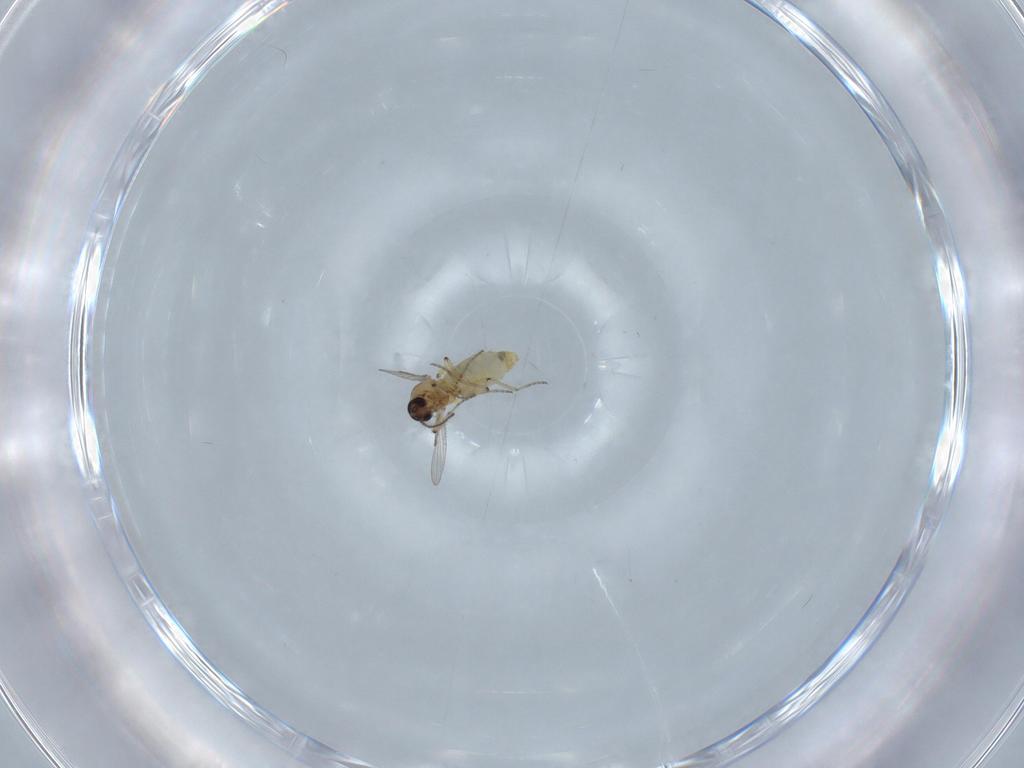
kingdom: Animalia
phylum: Arthropoda
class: Insecta
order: Diptera
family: Ceratopogonidae
